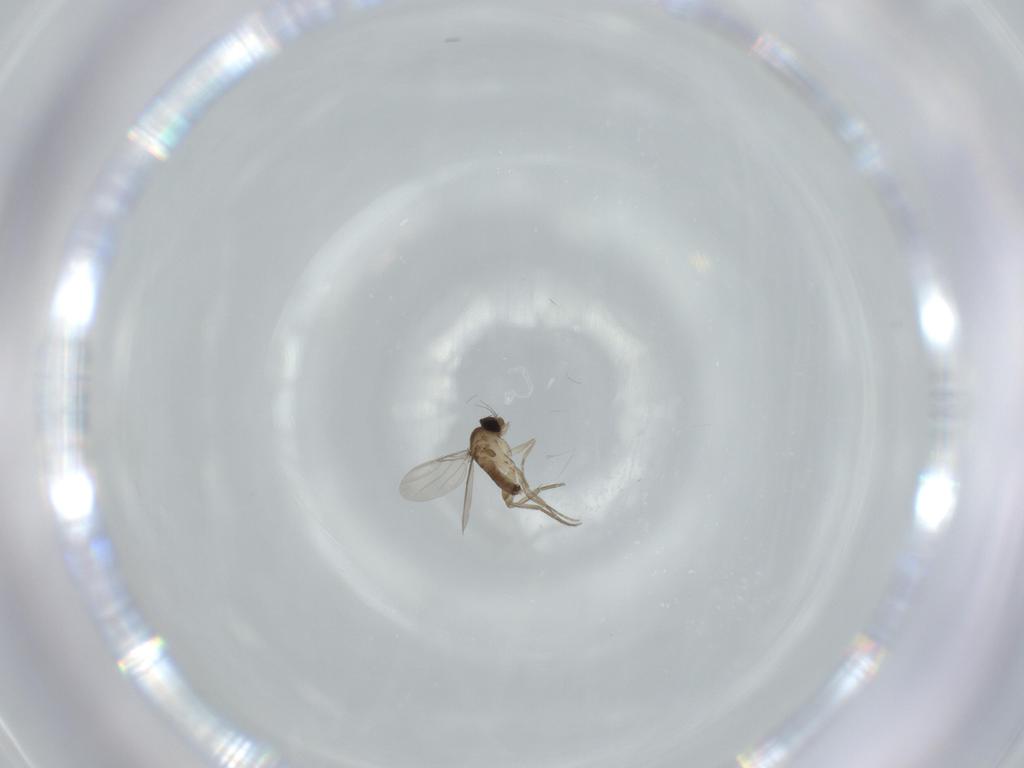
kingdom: Animalia
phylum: Arthropoda
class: Insecta
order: Diptera
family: Phoridae
